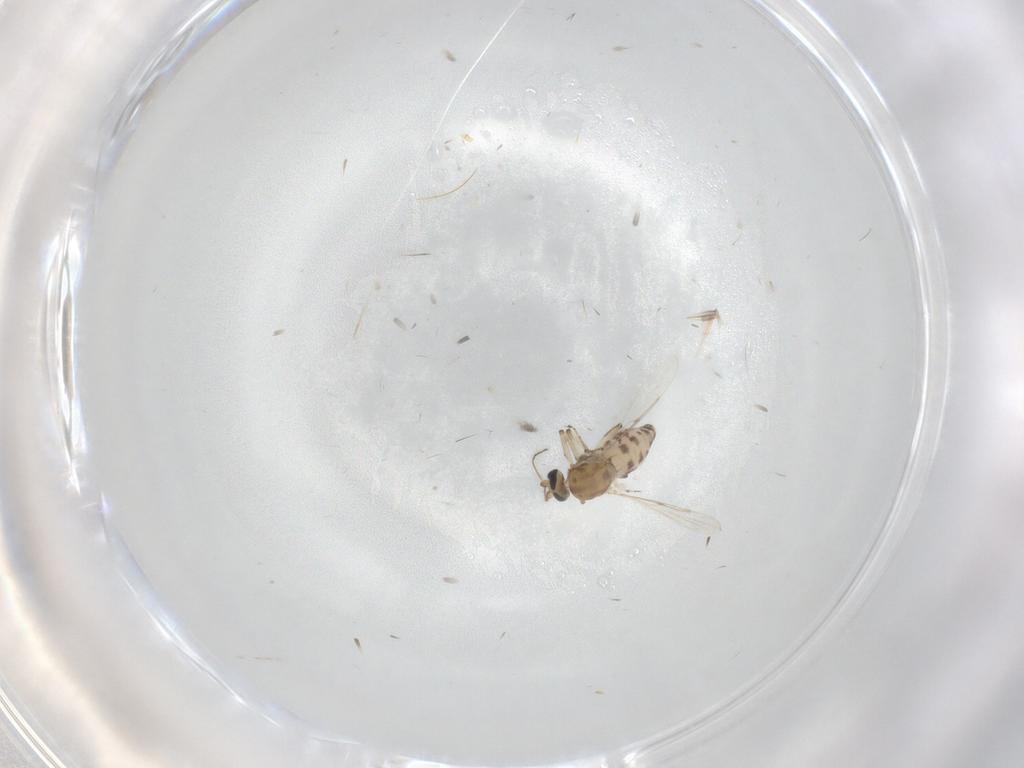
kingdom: Animalia
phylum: Arthropoda
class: Insecta
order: Diptera
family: Ceratopogonidae
